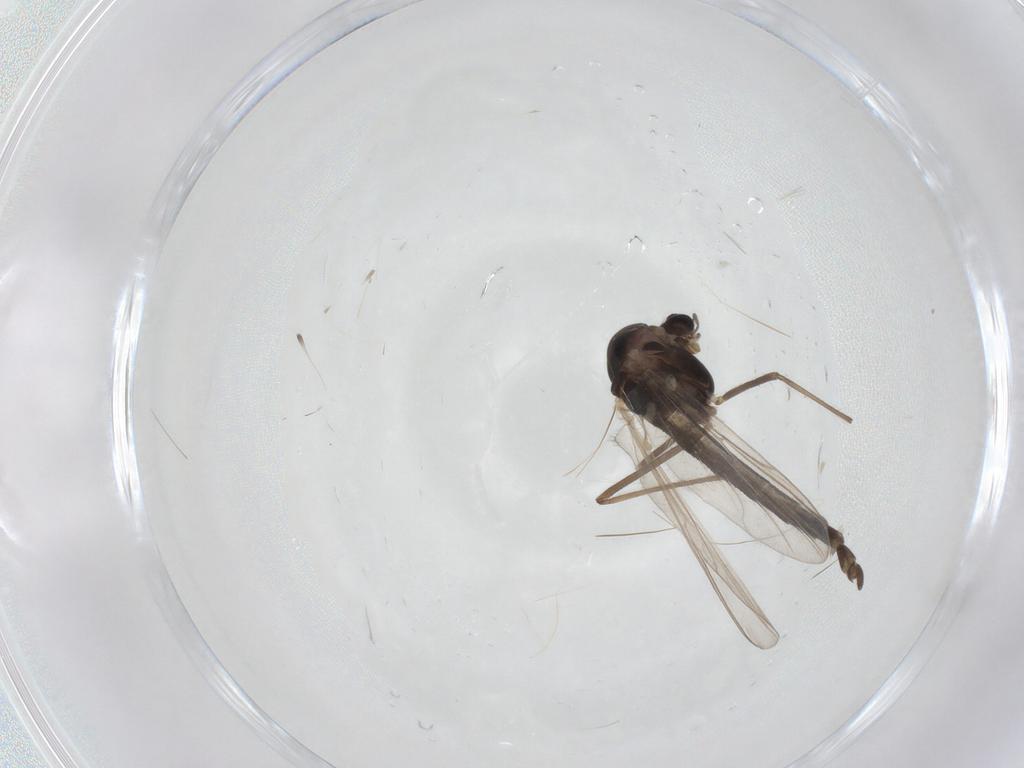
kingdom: Animalia
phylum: Arthropoda
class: Insecta
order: Diptera
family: Chironomidae
